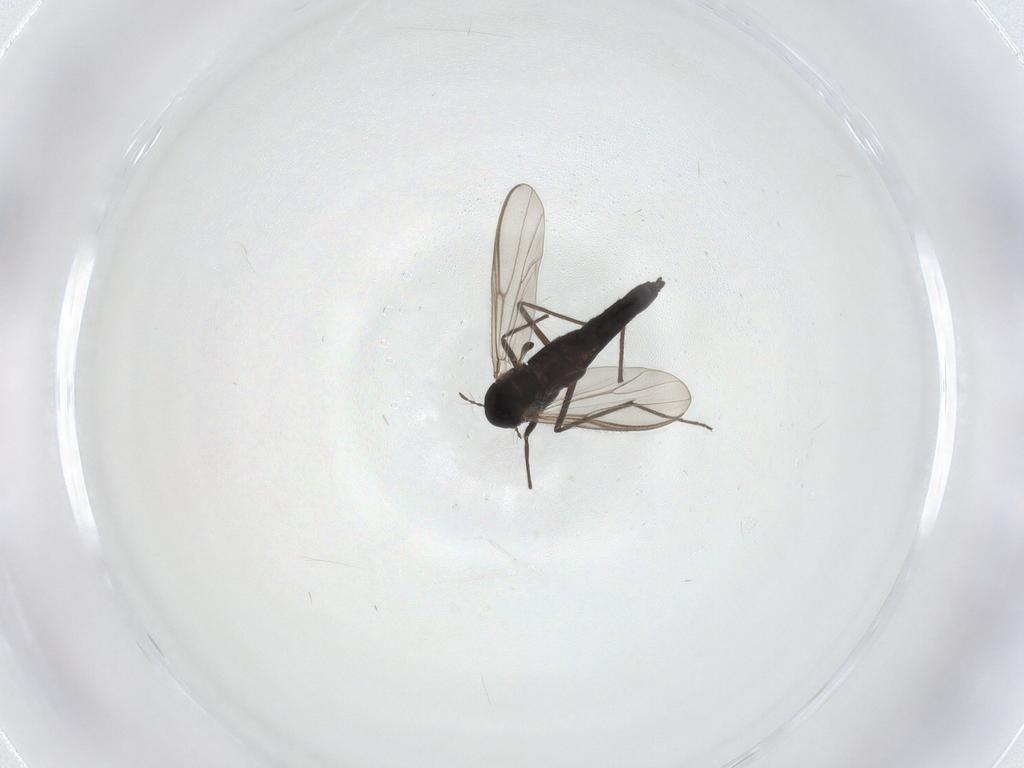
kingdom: Animalia
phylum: Arthropoda
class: Insecta
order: Diptera
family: Chironomidae
